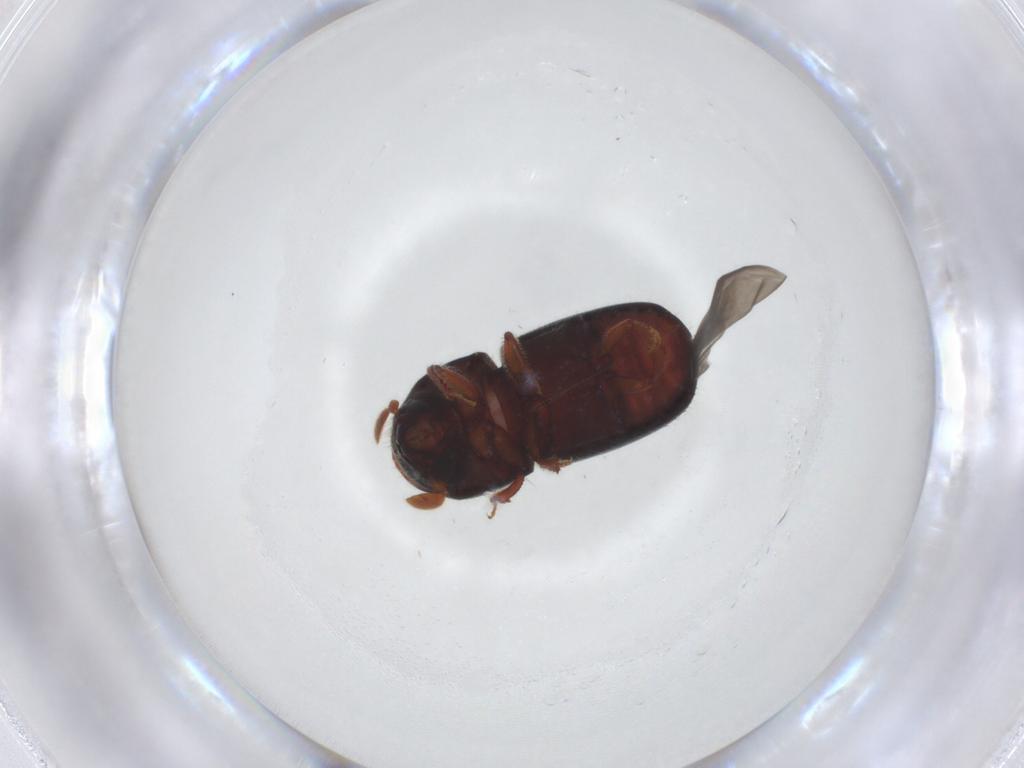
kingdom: Animalia
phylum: Arthropoda
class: Insecta
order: Coleoptera
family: Curculionidae
